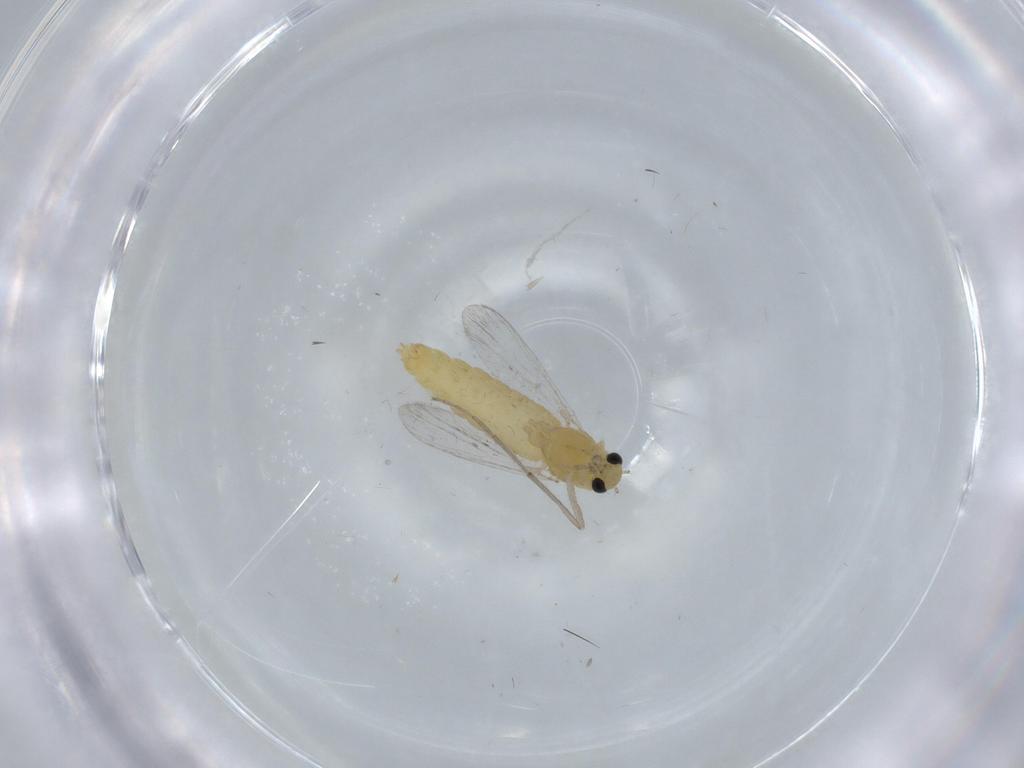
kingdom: Animalia
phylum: Arthropoda
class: Insecta
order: Diptera
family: Chironomidae
